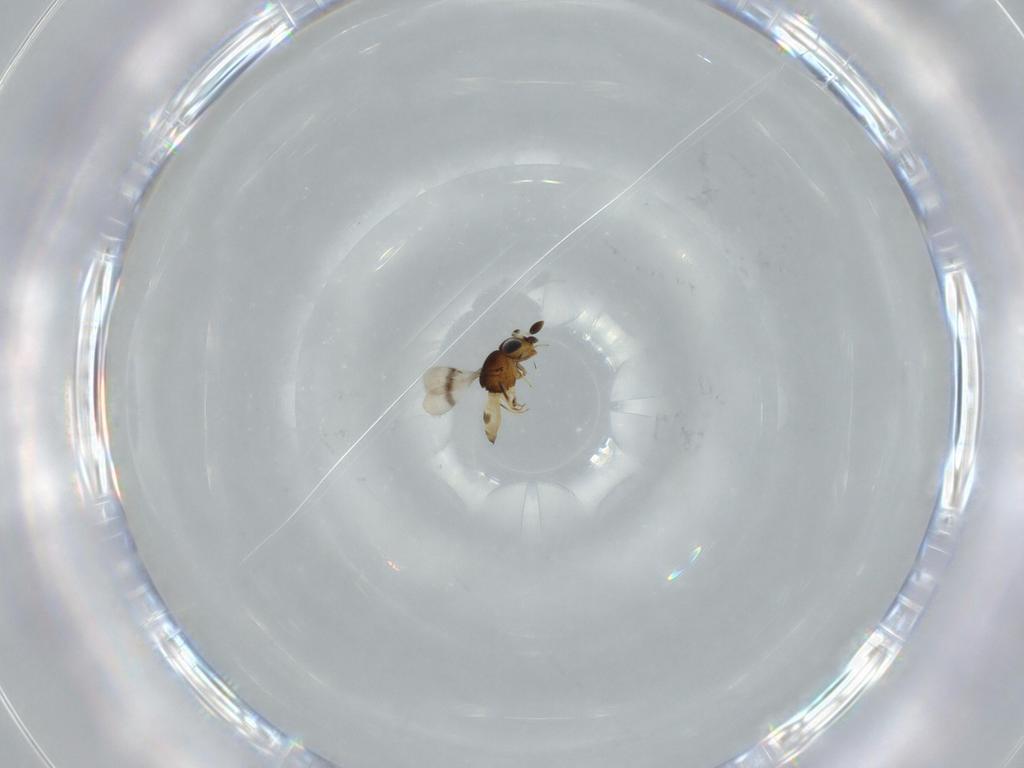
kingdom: Animalia
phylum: Arthropoda
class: Arachnida
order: Araneae
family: Pholcidae
